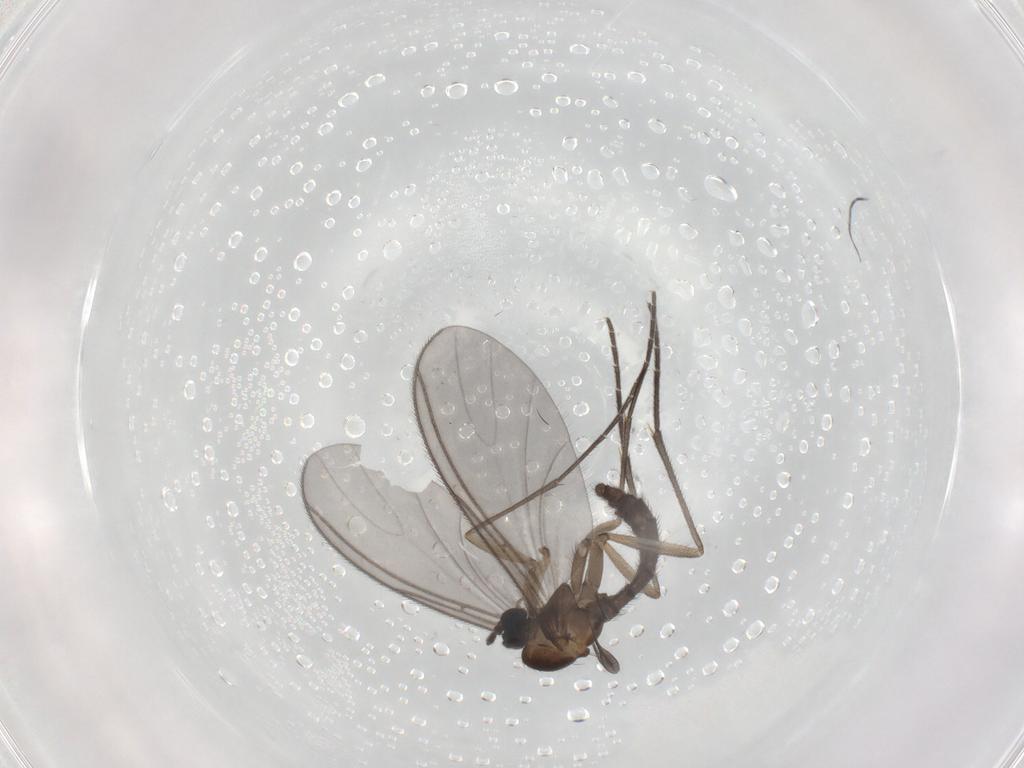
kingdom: Animalia
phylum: Arthropoda
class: Insecta
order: Diptera
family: Sciaridae
